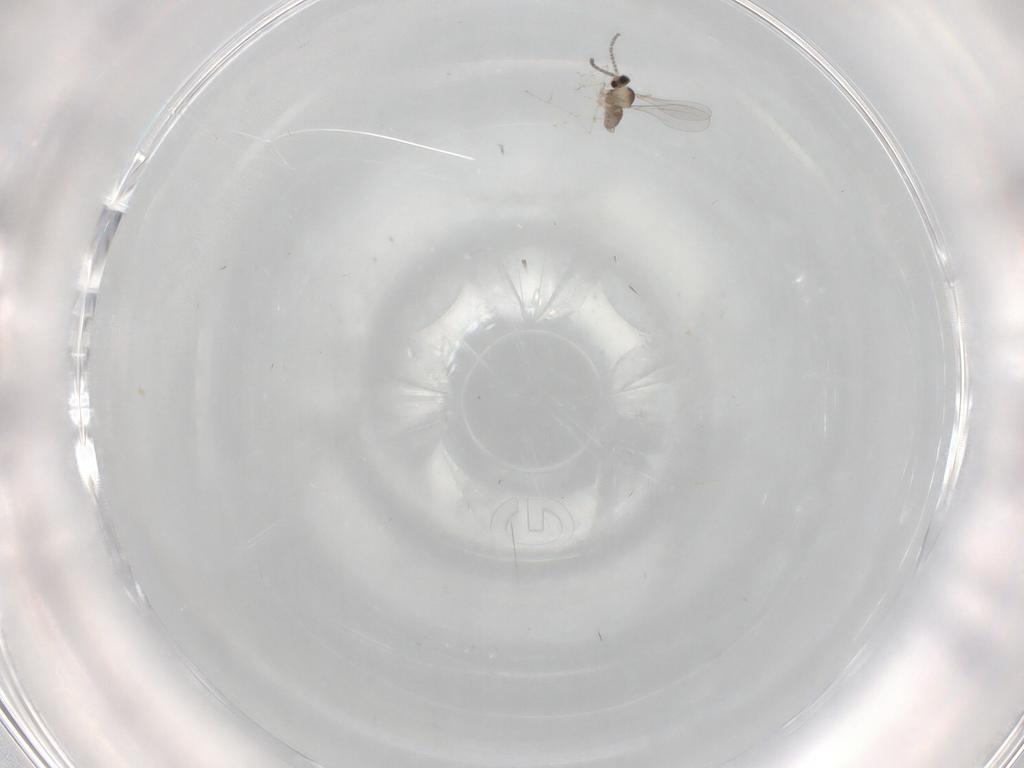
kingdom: Animalia
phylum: Arthropoda
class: Insecta
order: Diptera
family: Cecidomyiidae
